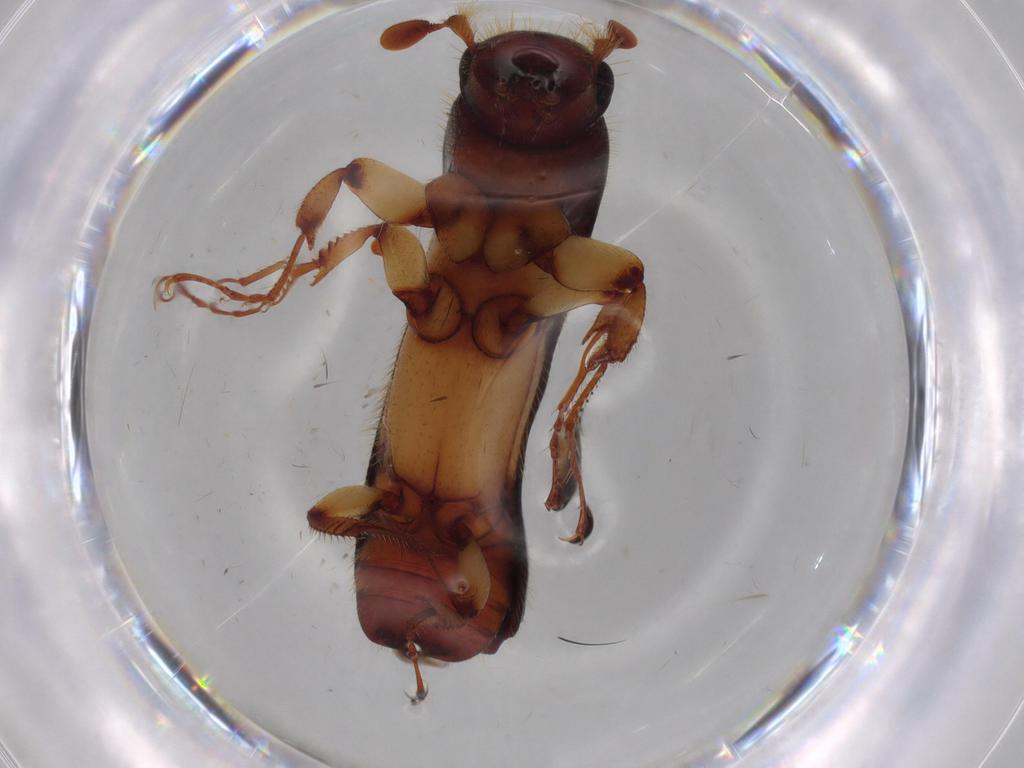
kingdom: Animalia
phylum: Arthropoda
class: Insecta
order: Coleoptera
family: Curculionidae
